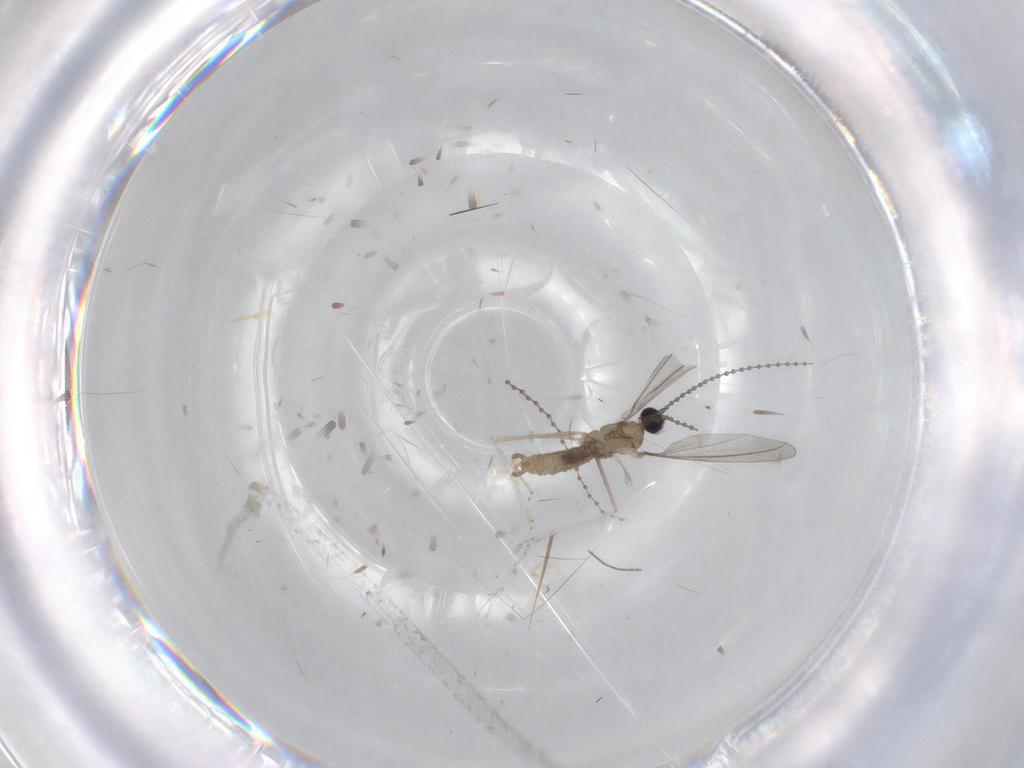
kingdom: Animalia
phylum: Arthropoda
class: Insecta
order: Diptera
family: Cecidomyiidae
